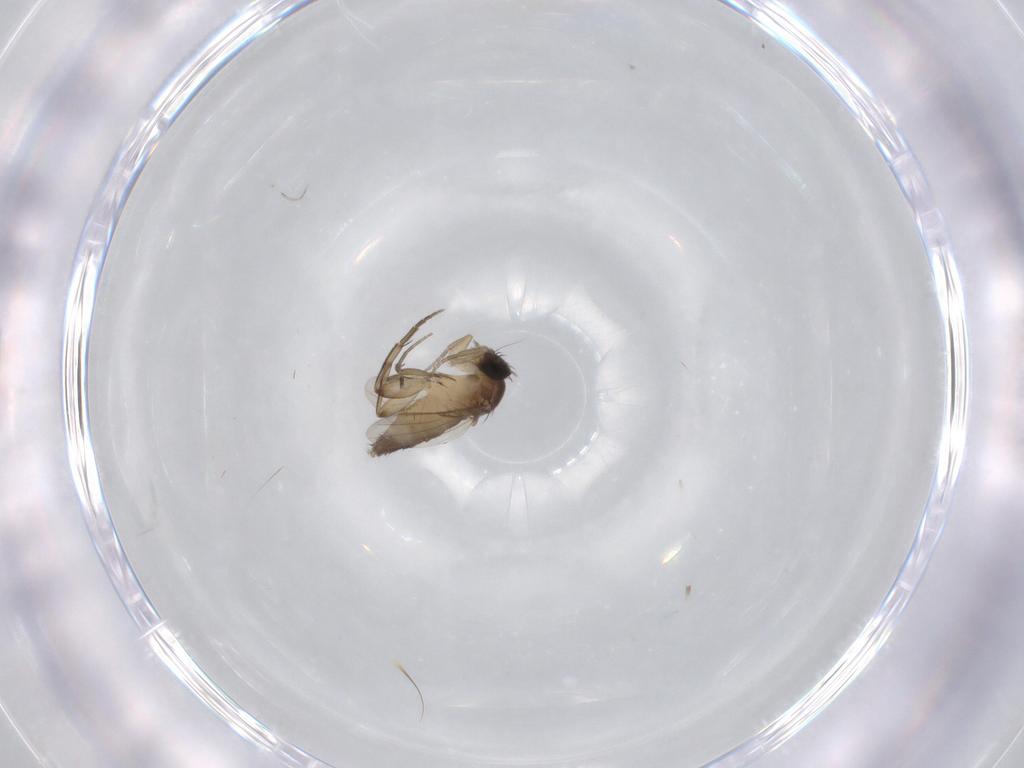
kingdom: Animalia
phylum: Arthropoda
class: Insecta
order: Diptera
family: Phoridae
